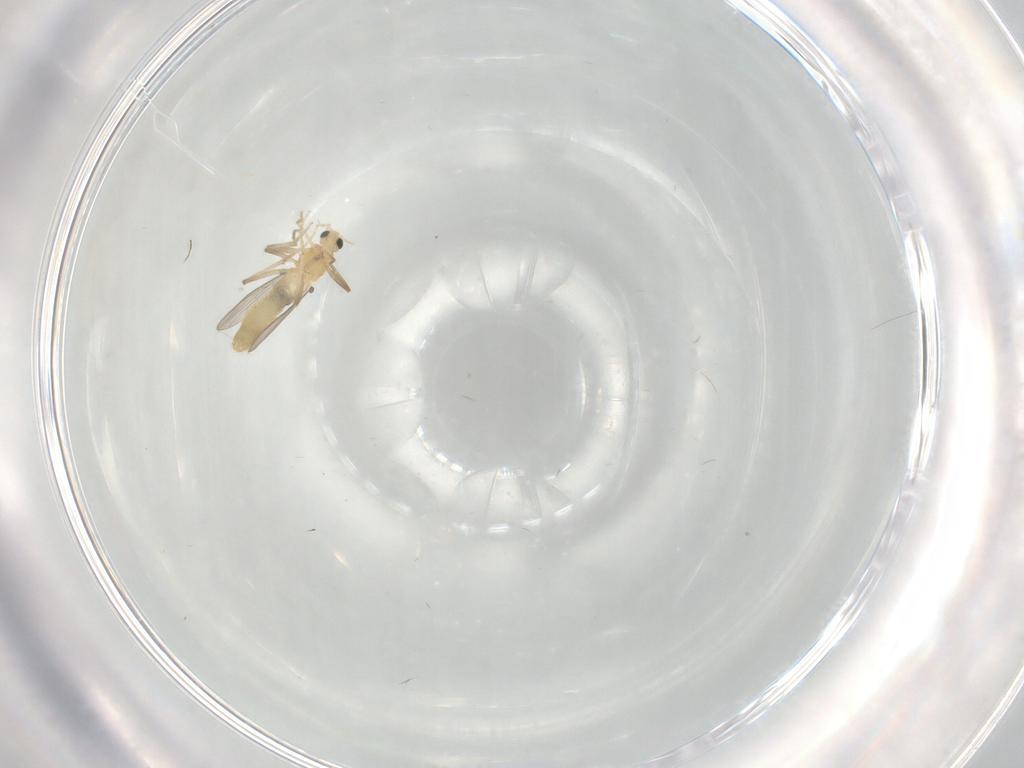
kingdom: Animalia
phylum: Arthropoda
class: Insecta
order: Diptera
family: Chironomidae
